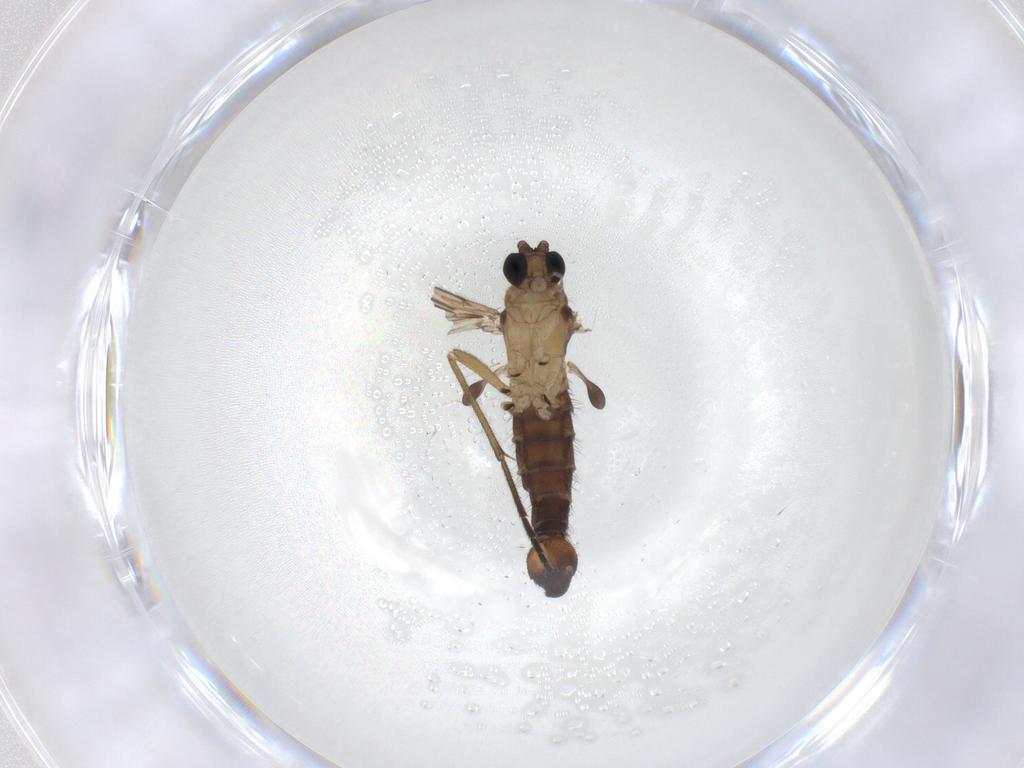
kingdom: Animalia
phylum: Arthropoda
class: Insecta
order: Diptera
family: Sciaridae
